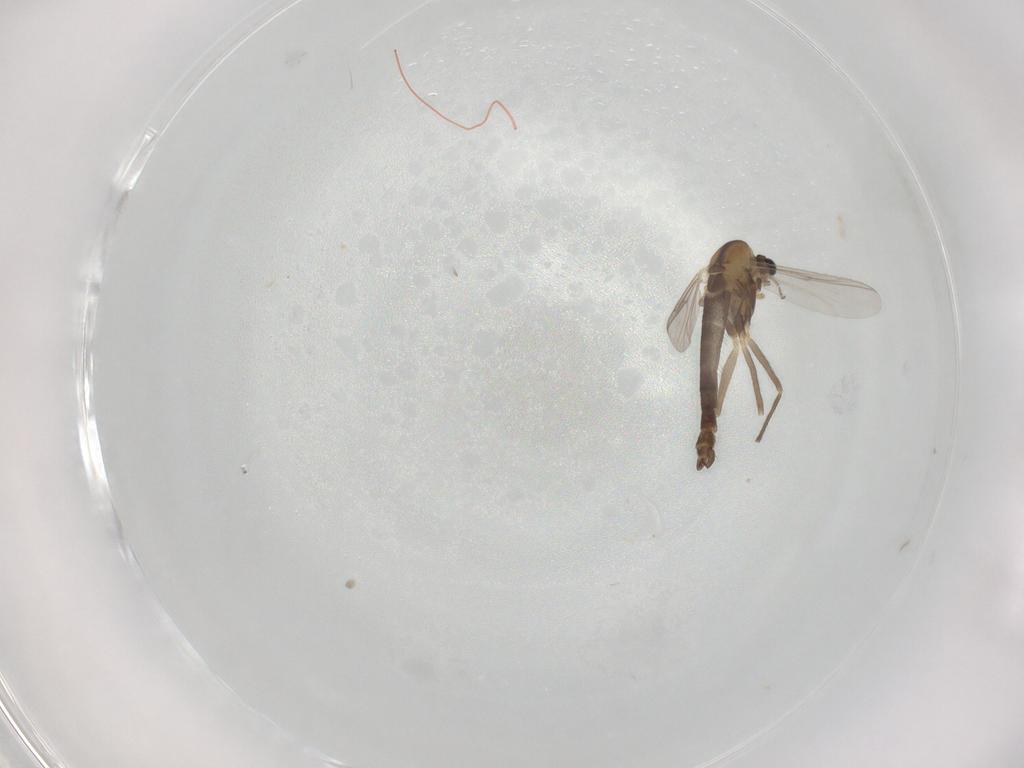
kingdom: Animalia
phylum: Arthropoda
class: Insecta
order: Diptera
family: Chironomidae
